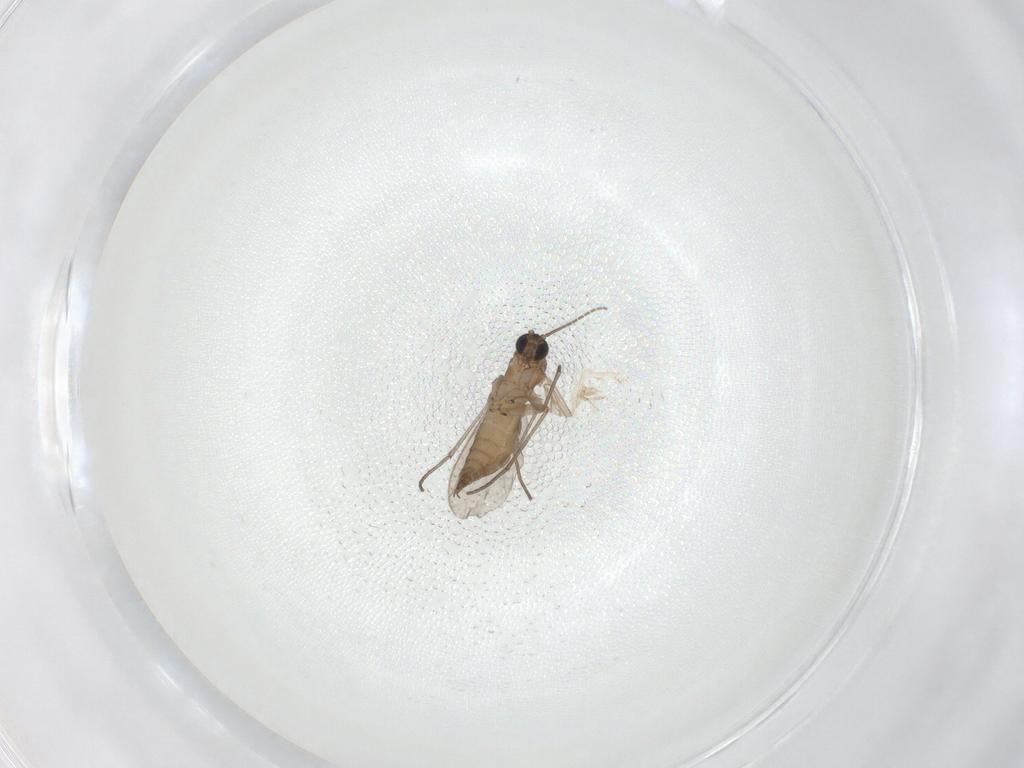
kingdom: Animalia
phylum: Arthropoda
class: Insecta
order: Diptera
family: Sciaridae
